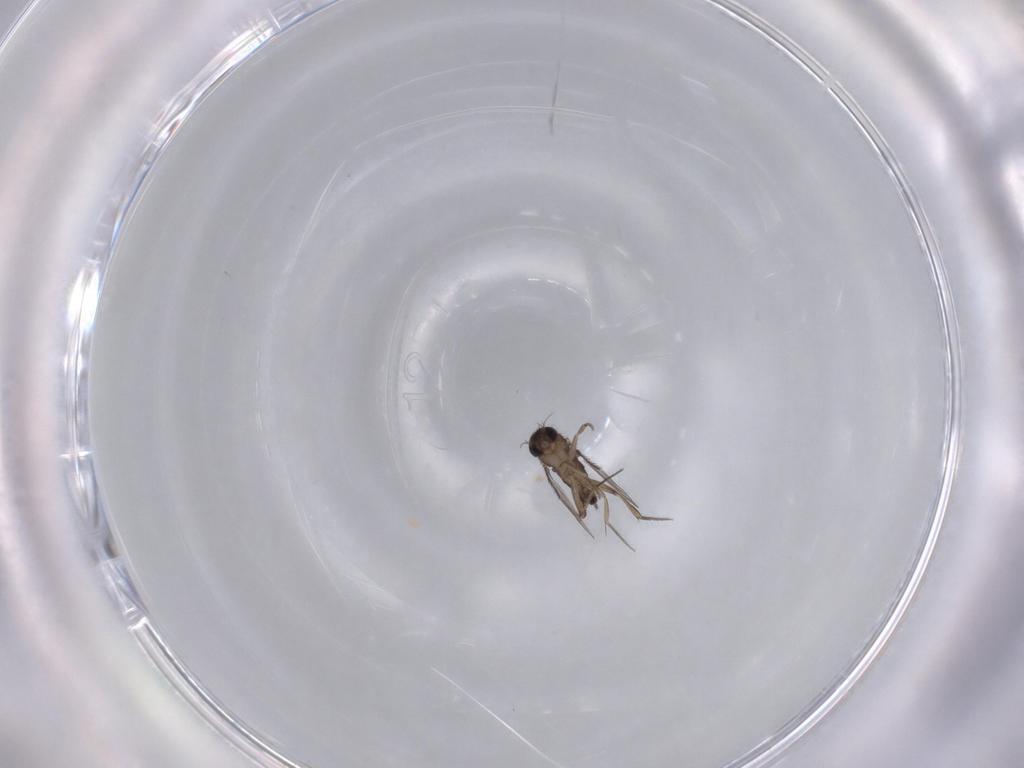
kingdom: Animalia
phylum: Arthropoda
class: Insecta
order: Diptera
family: Phoridae
